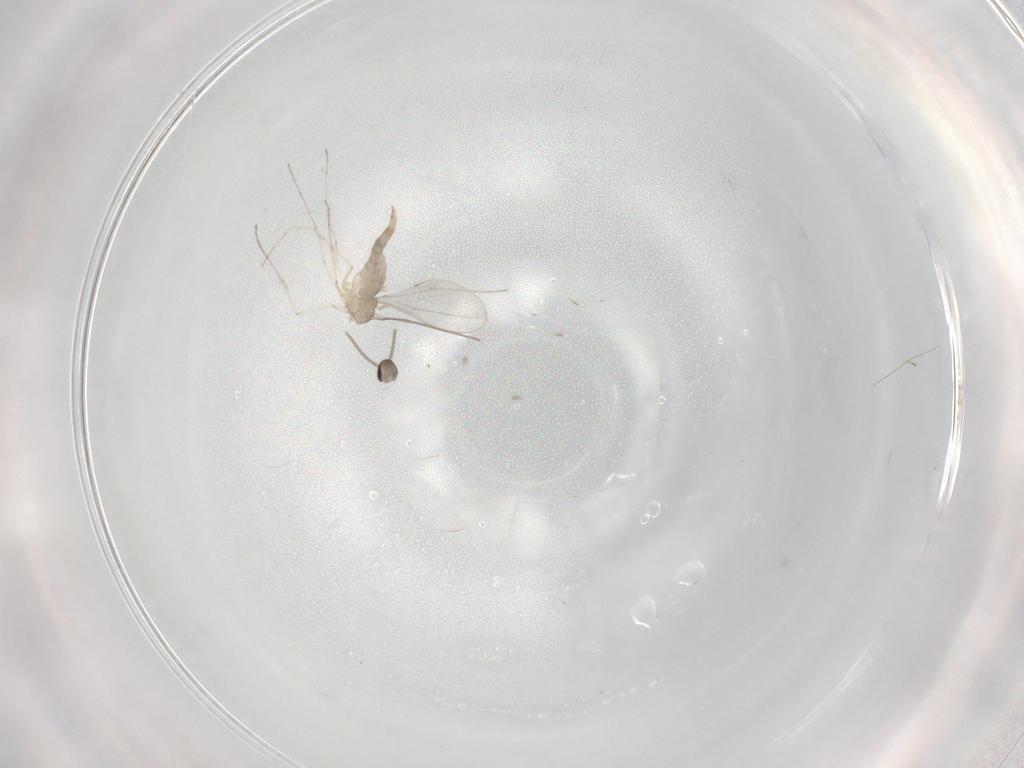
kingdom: Animalia
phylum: Arthropoda
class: Insecta
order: Diptera
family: Cecidomyiidae
